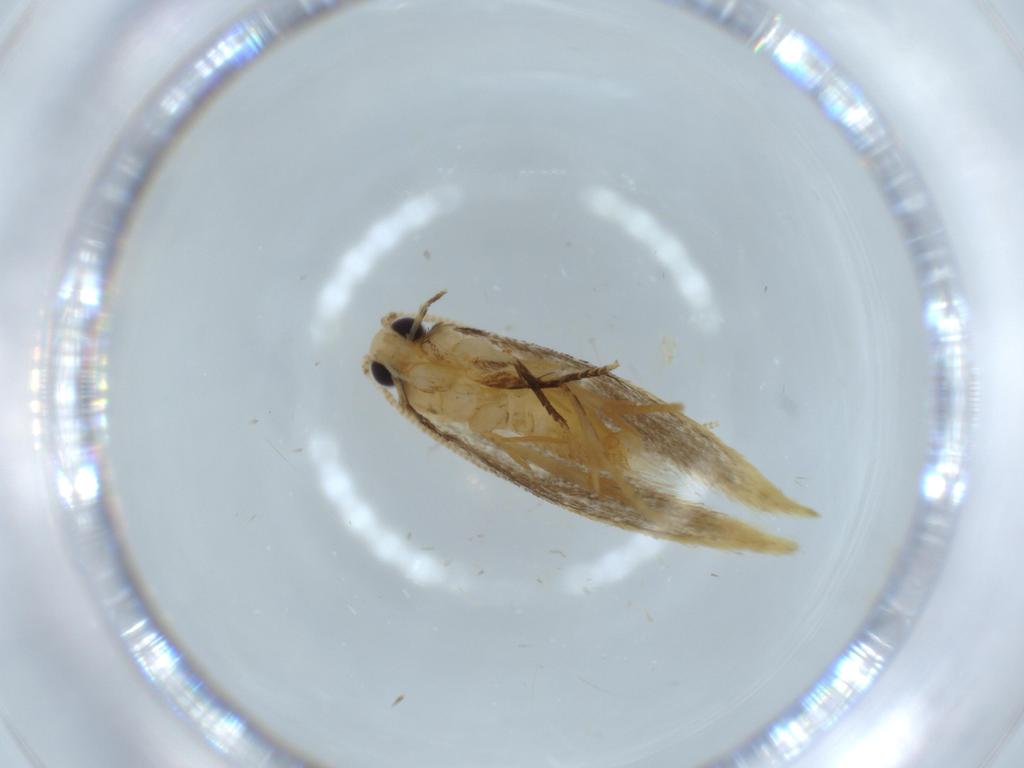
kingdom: Animalia
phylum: Arthropoda
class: Insecta
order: Lepidoptera
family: Tineidae
